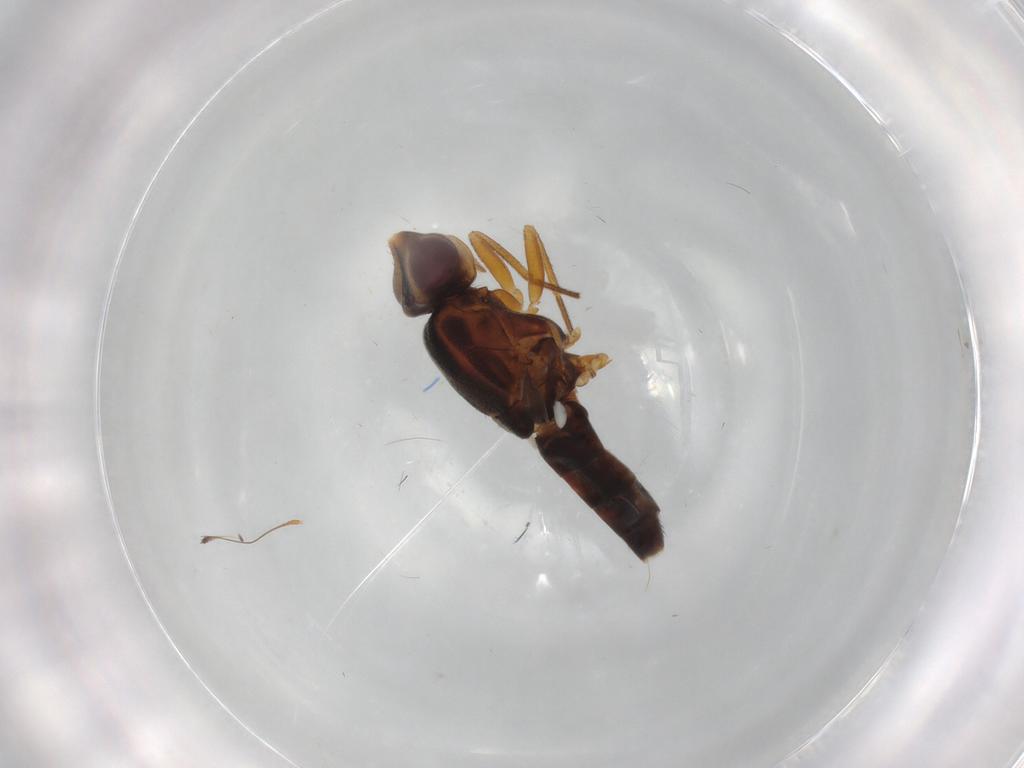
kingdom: Animalia
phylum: Arthropoda
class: Insecta
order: Diptera
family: Chloropidae
